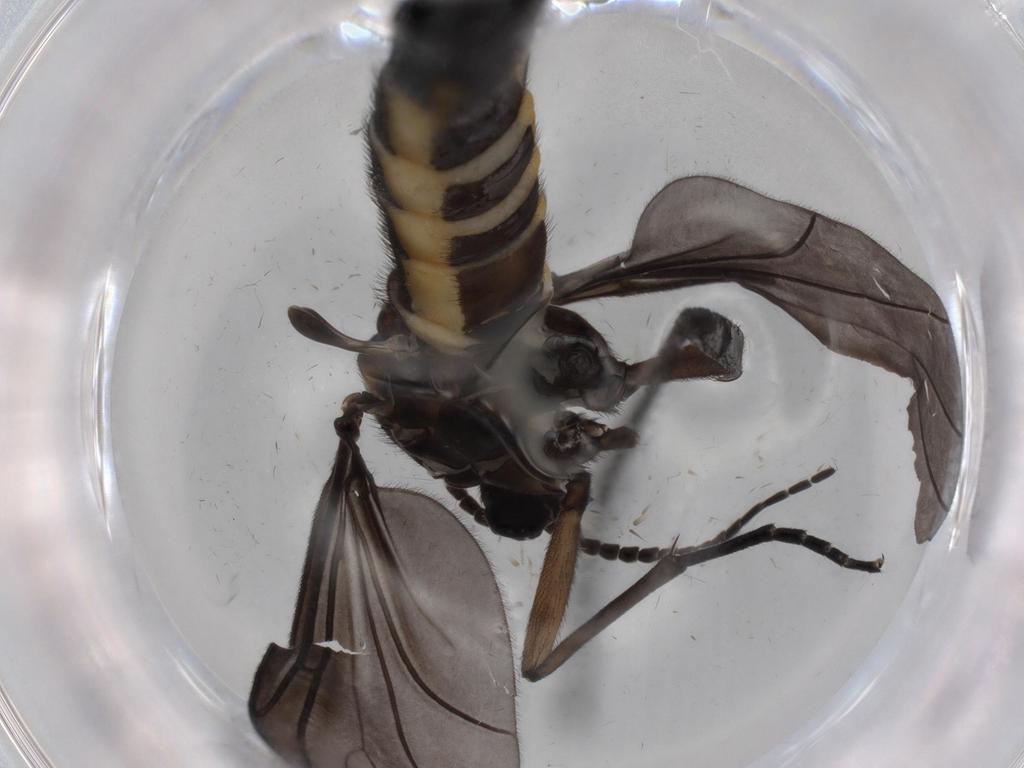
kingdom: Animalia
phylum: Arthropoda
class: Insecta
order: Diptera
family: Sciaridae
